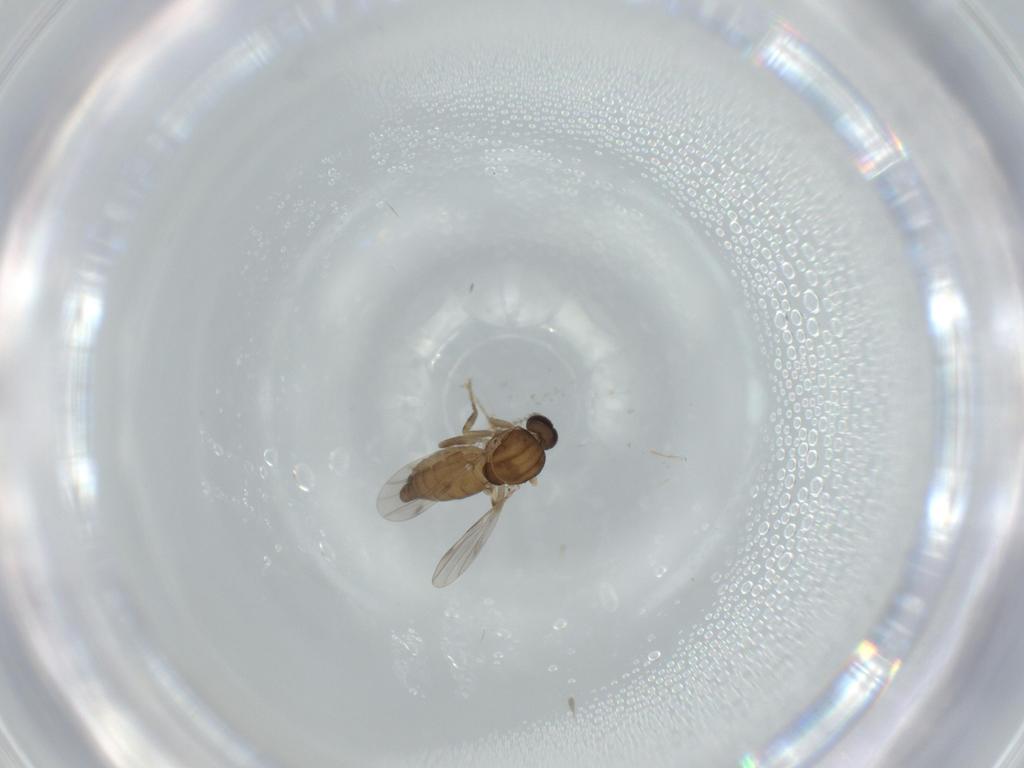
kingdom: Animalia
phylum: Arthropoda
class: Insecta
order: Diptera
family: Ceratopogonidae
